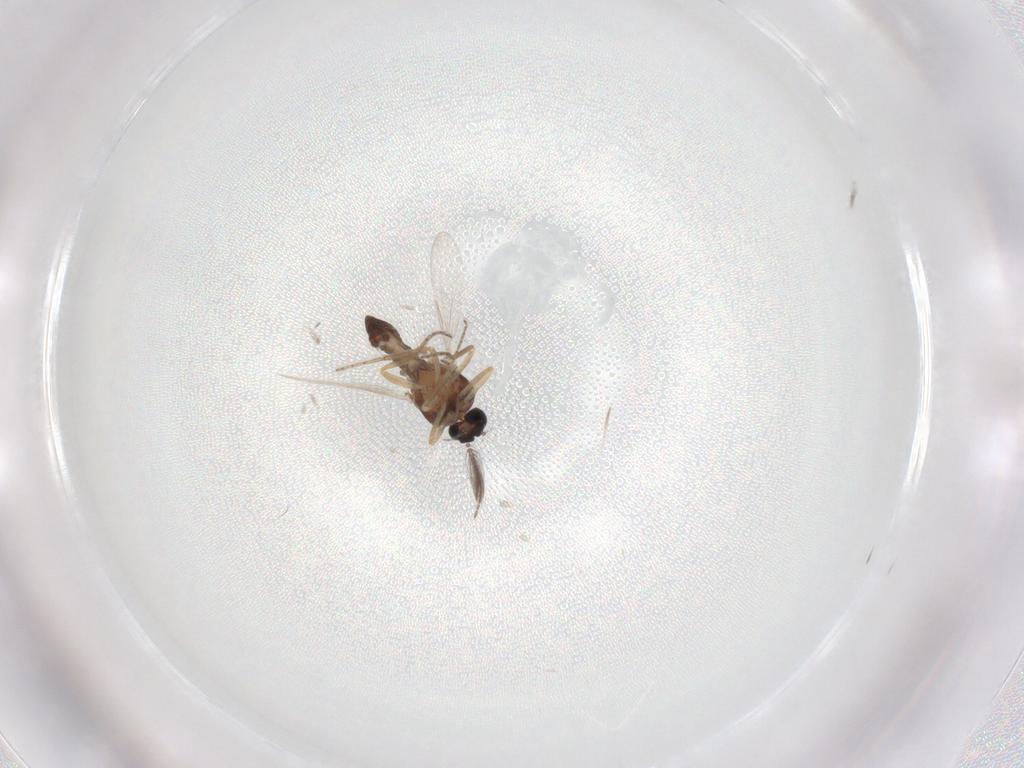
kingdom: Animalia
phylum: Arthropoda
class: Insecta
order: Diptera
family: Ceratopogonidae
